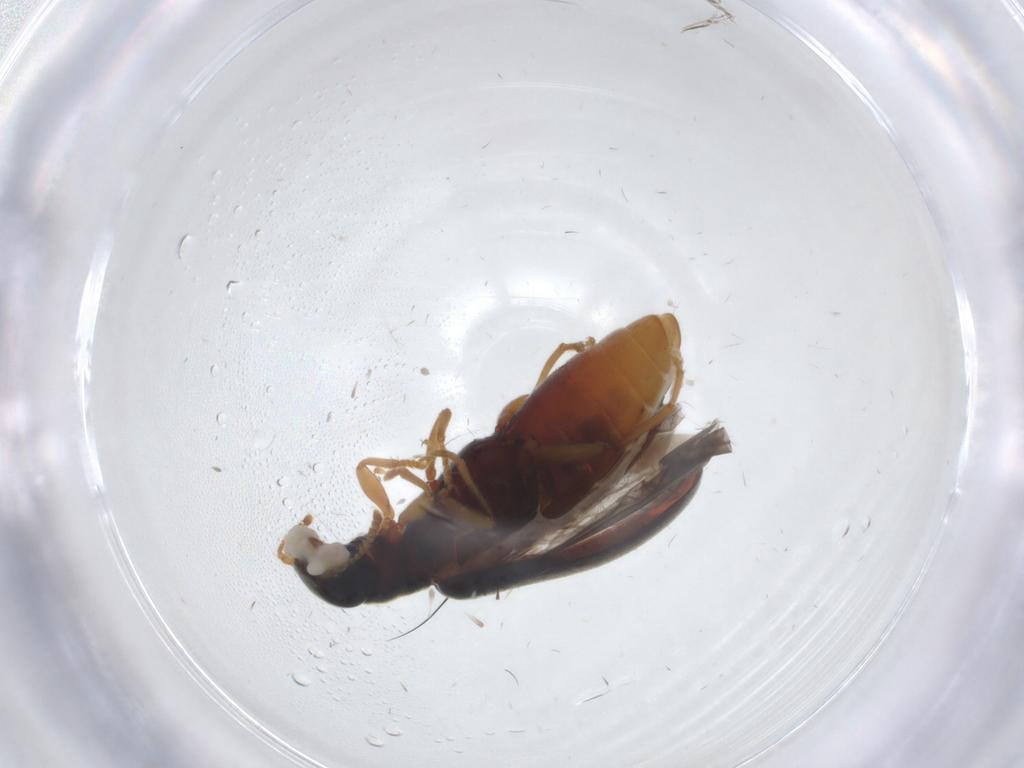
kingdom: Animalia
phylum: Arthropoda
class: Insecta
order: Coleoptera
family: Mycteridae
